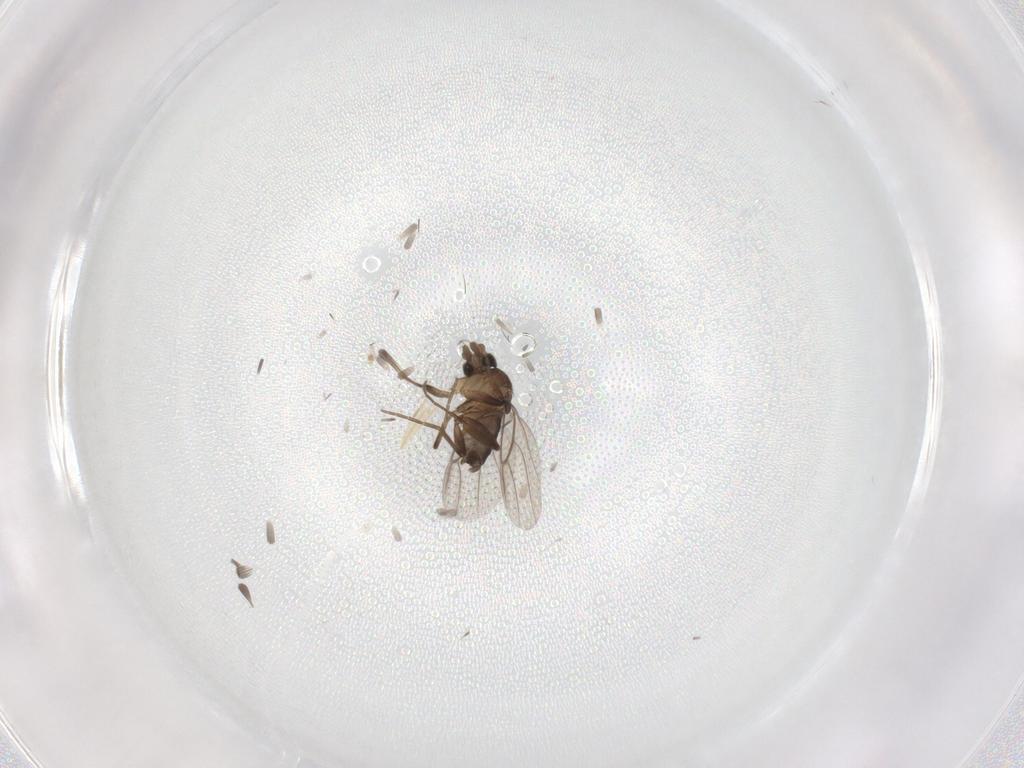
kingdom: Animalia
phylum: Arthropoda
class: Insecta
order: Diptera
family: Phoridae
